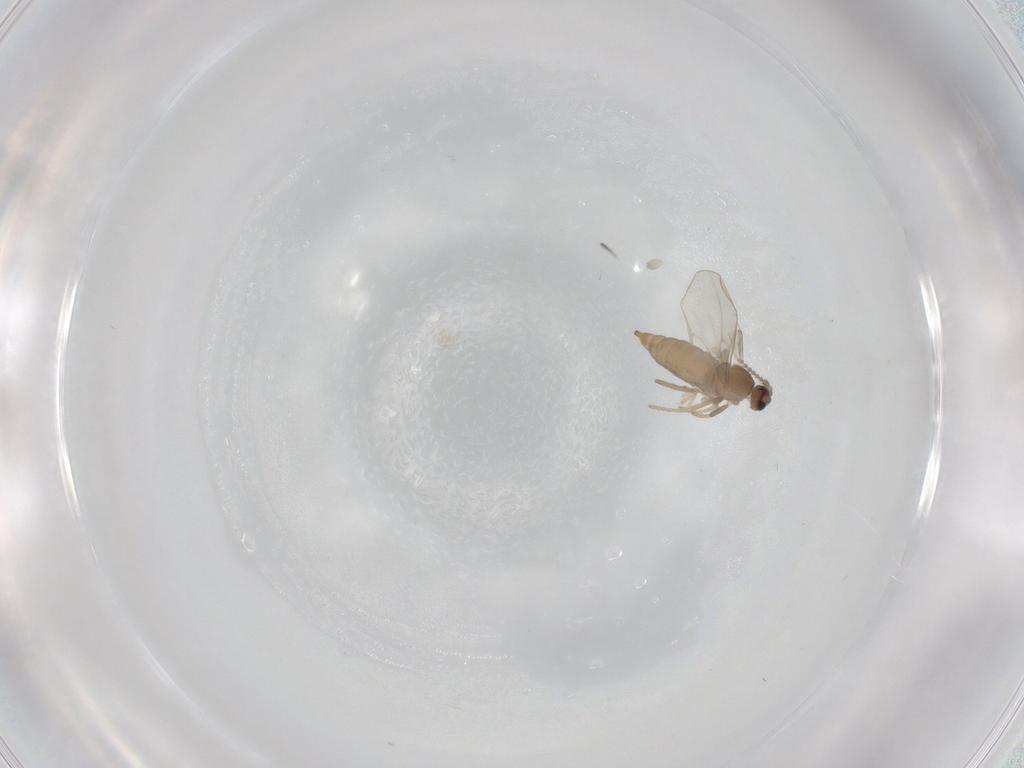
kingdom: Animalia
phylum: Arthropoda
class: Insecta
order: Diptera
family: Cecidomyiidae
